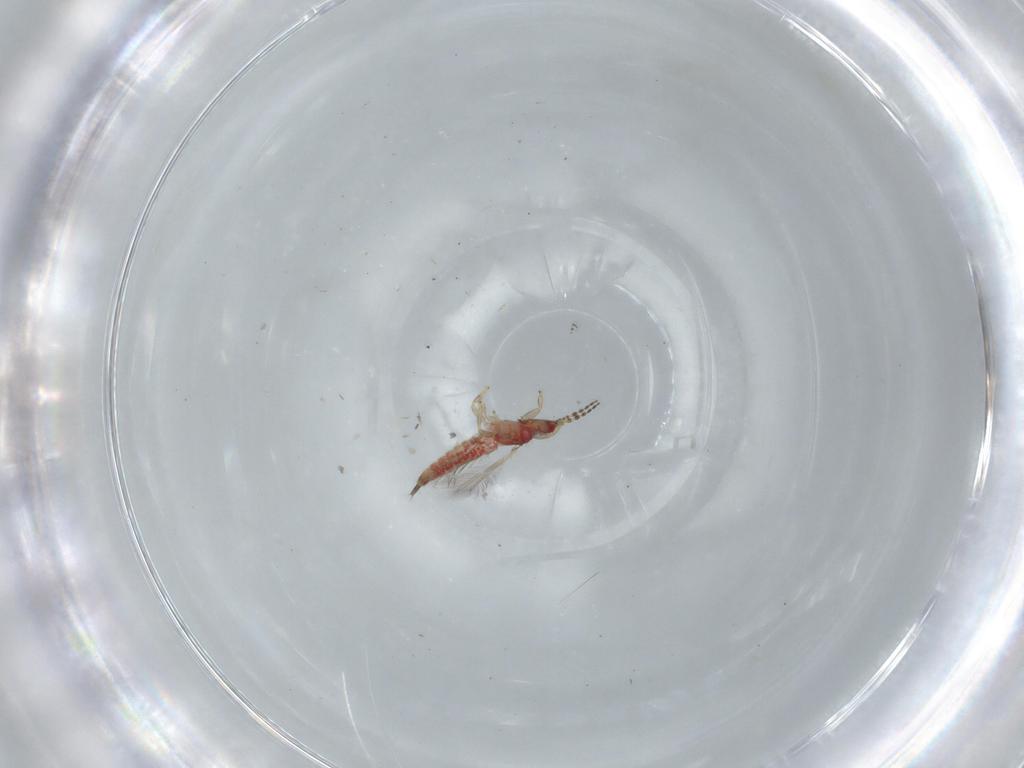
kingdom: Animalia
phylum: Arthropoda
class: Insecta
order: Thysanoptera
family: Phlaeothripidae
